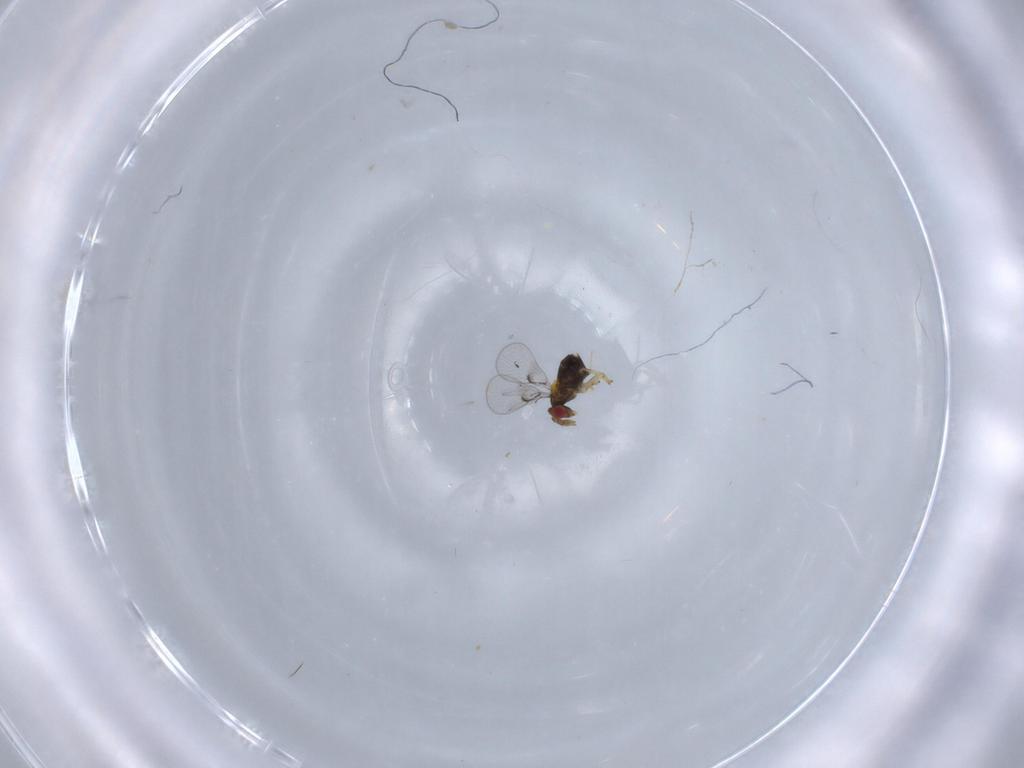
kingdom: Animalia
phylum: Arthropoda
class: Insecta
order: Hymenoptera
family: Trichogrammatidae
